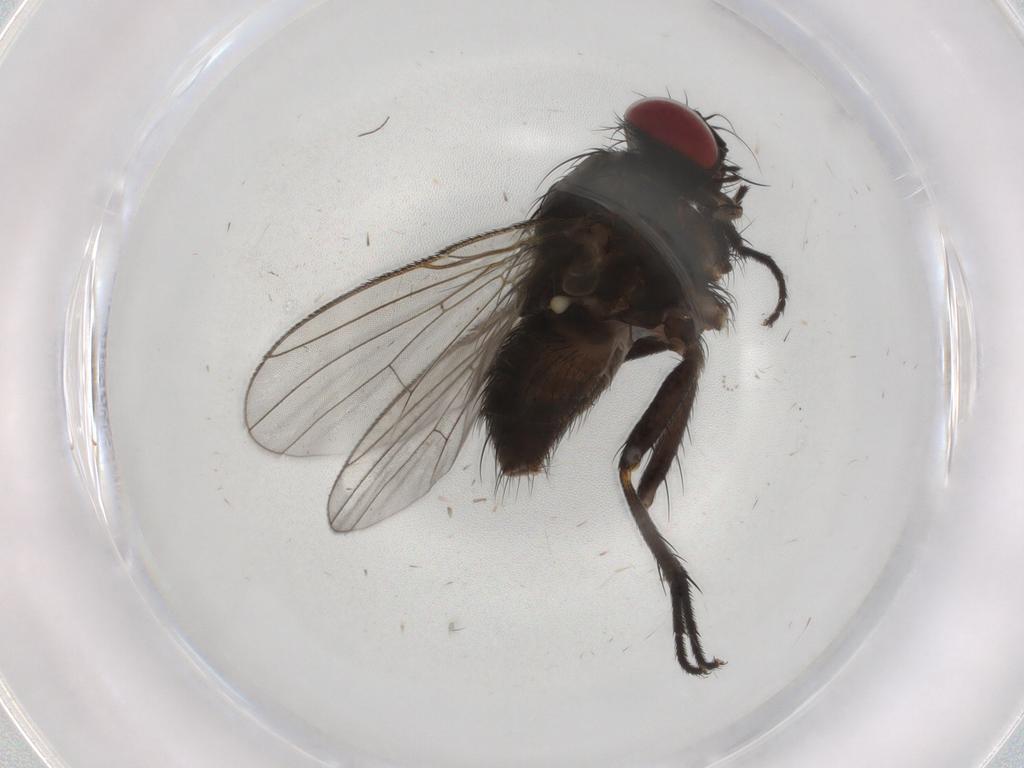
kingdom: Animalia
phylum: Arthropoda
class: Insecta
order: Diptera
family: Muscidae
